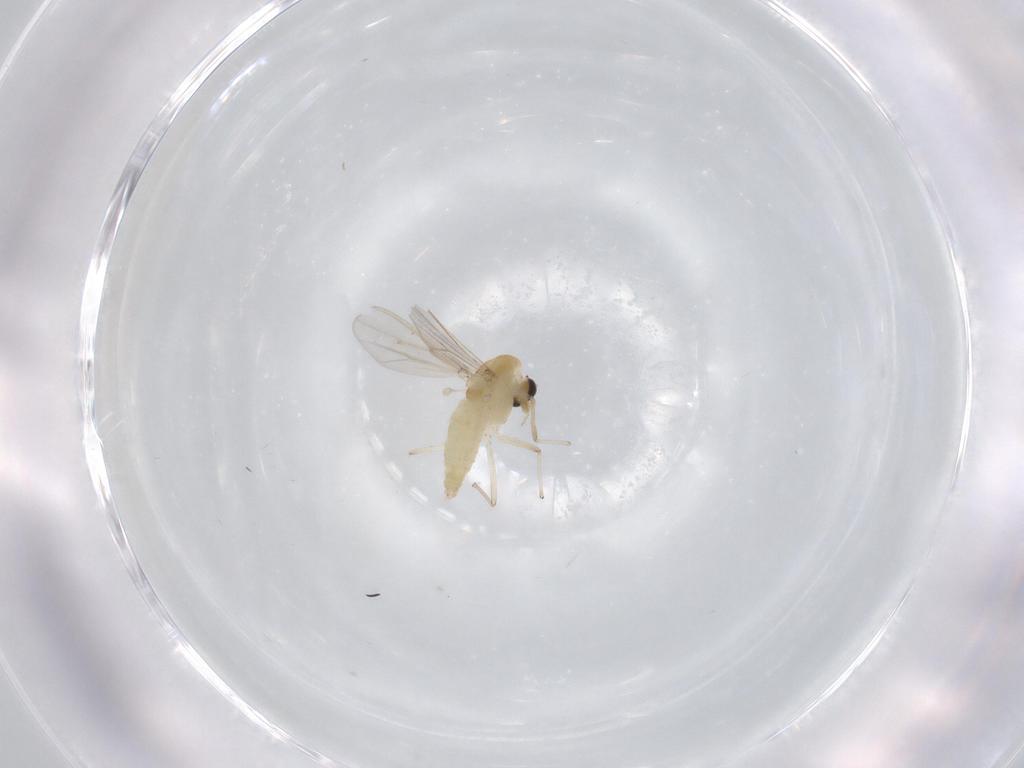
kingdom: Animalia
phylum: Arthropoda
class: Insecta
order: Diptera
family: Chironomidae
